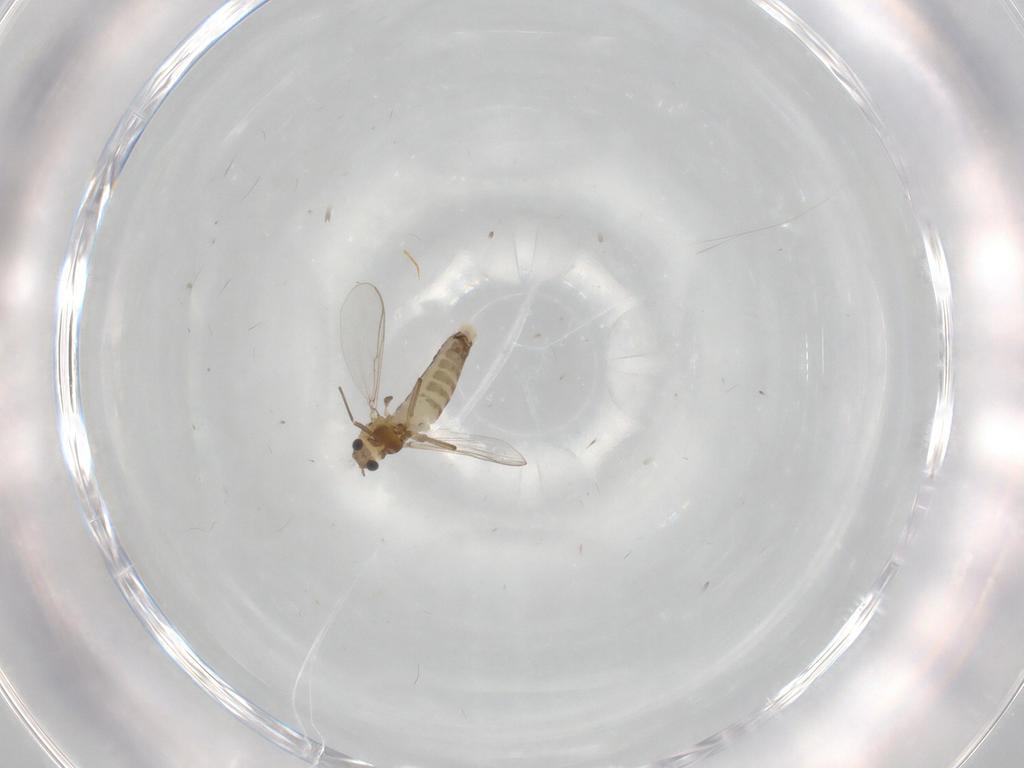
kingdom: Animalia
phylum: Arthropoda
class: Insecta
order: Diptera
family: Chironomidae
